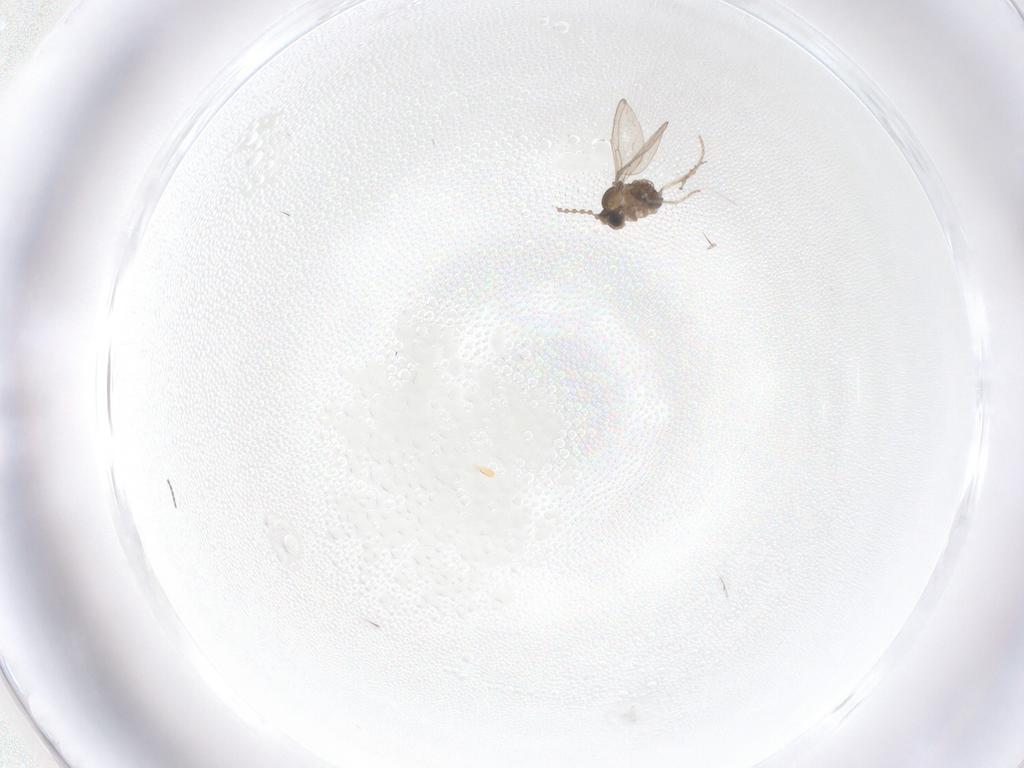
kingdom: Animalia
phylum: Arthropoda
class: Insecta
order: Diptera
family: Cecidomyiidae
